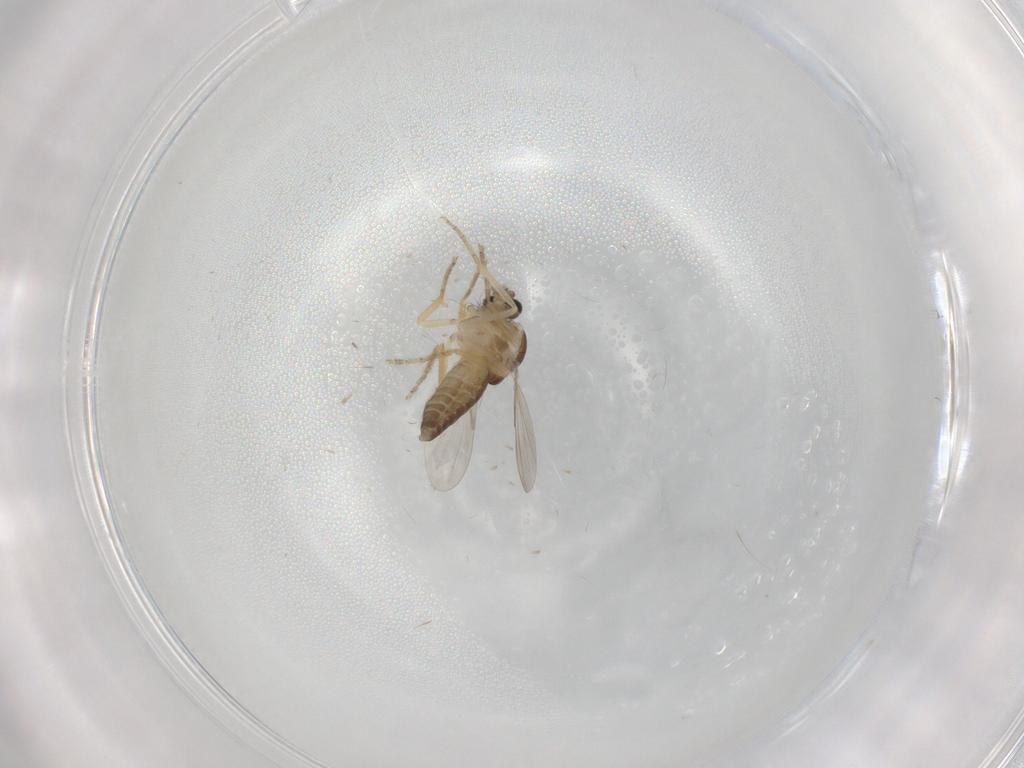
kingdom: Animalia
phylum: Arthropoda
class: Insecta
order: Diptera
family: Ceratopogonidae
